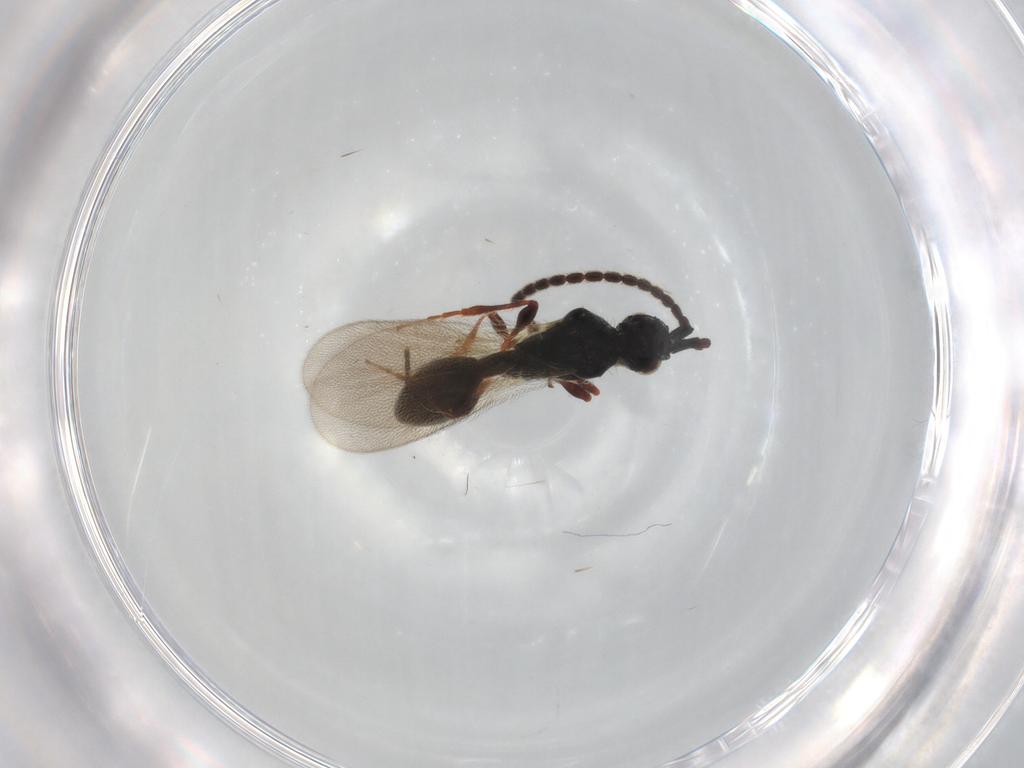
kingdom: Animalia
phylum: Arthropoda
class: Insecta
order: Hymenoptera
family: Diapriidae
